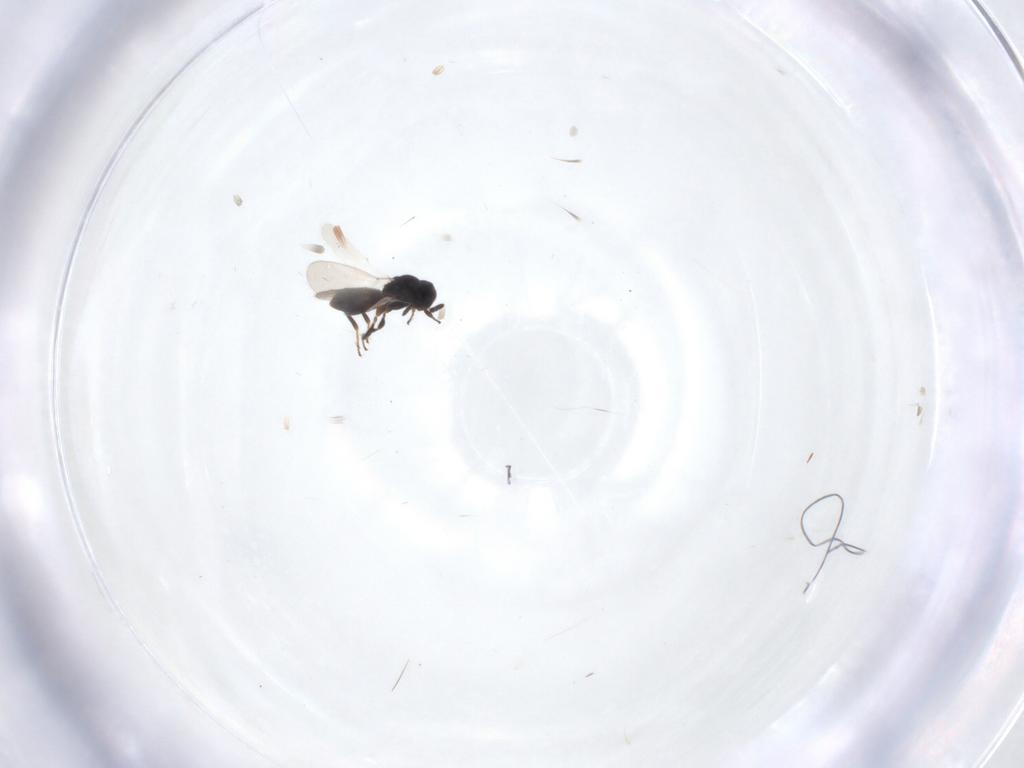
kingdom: Animalia
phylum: Arthropoda
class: Insecta
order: Hymenoptera
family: Platygastridae
